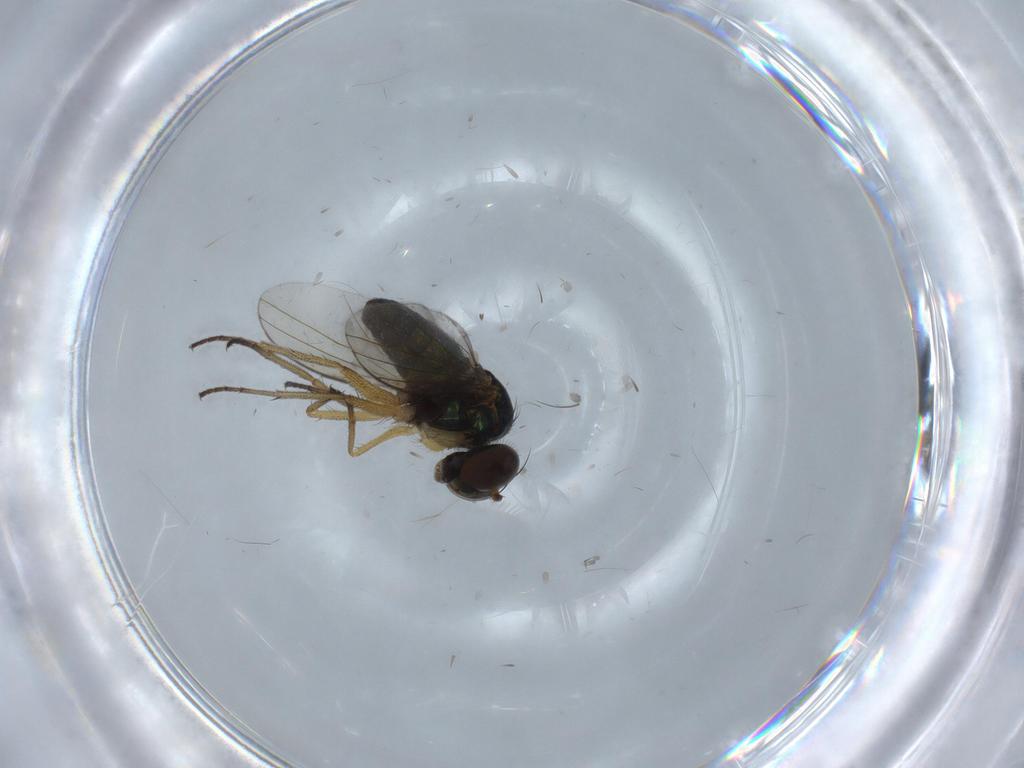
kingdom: Animalia
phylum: Arthropoda
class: Insecta
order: Diptera
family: Chironomidae
